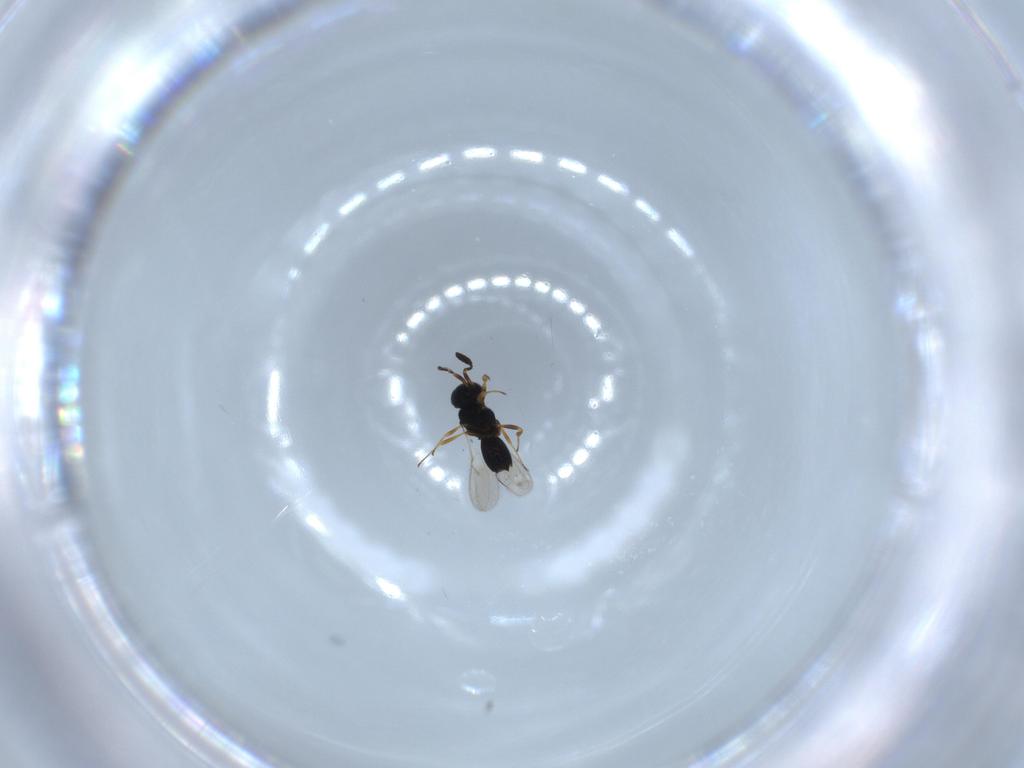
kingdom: Animalia
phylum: Arthropoda
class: Insecta
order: Hymenoptera
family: Scelionidae
